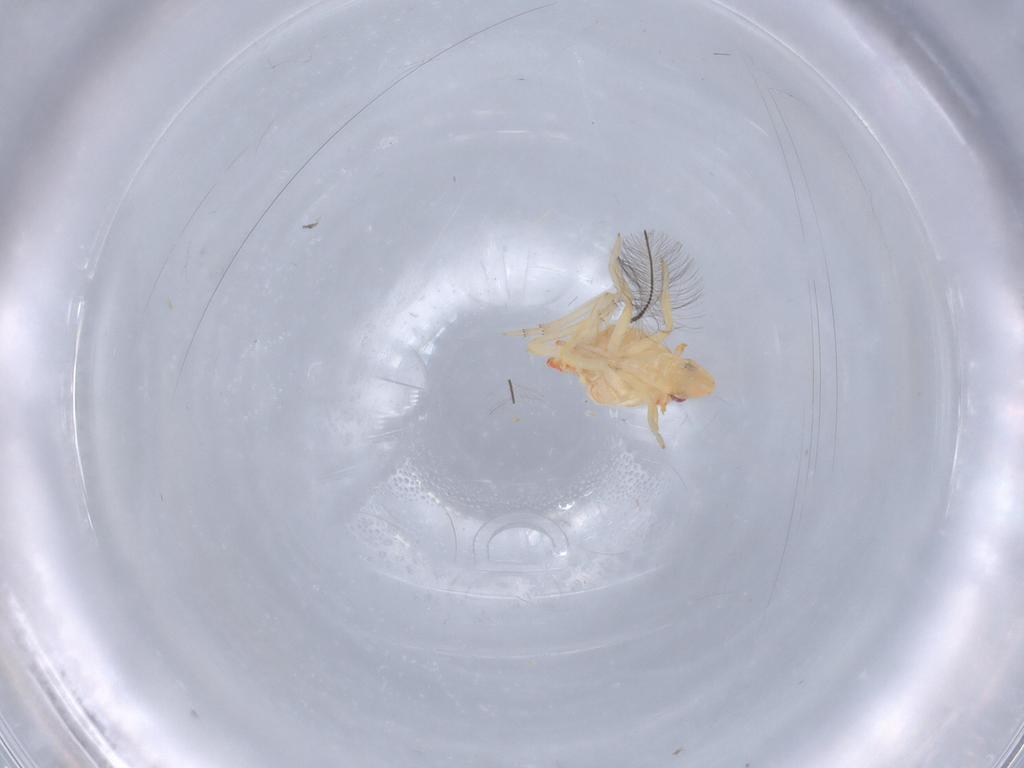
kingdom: Animalia
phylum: Arthropoda
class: Insecta
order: Hemiptera
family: Flatidae
